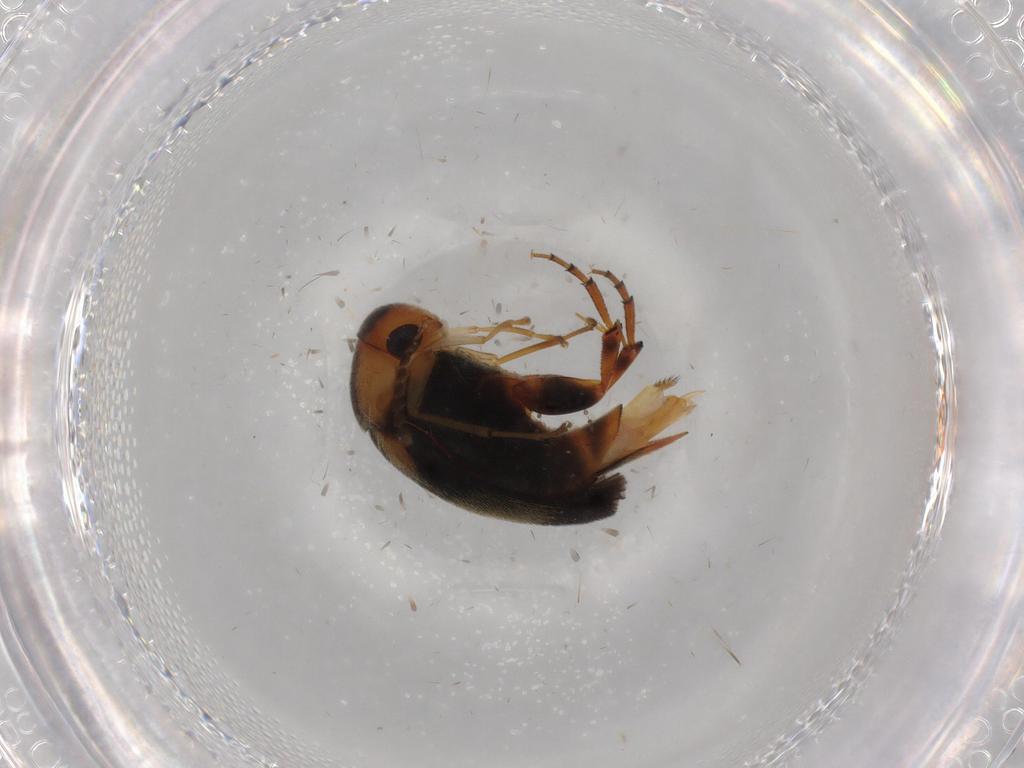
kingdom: Animalia
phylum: Arthropoda
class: Insecta
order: Coleoptera
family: Mordellidae
